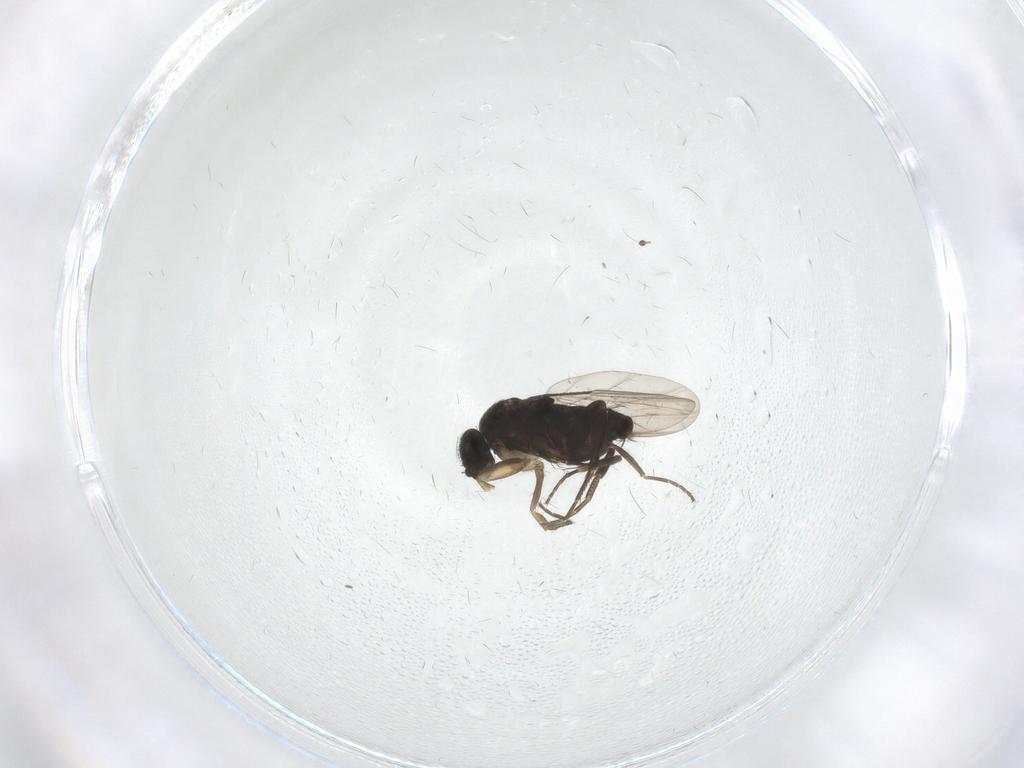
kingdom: Animalia
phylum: Arthropoda
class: Insecta
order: Diptera
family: Phoridae
